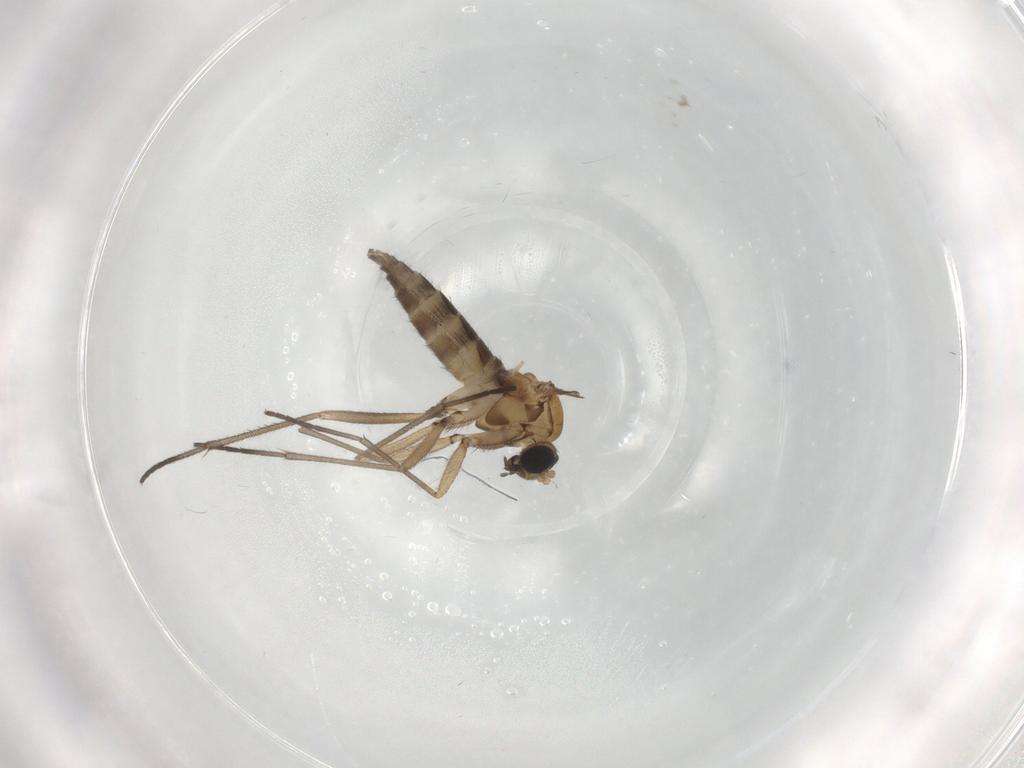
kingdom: Animalia
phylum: Arthropoda
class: Insecta
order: Diptera
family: Sciaridae
